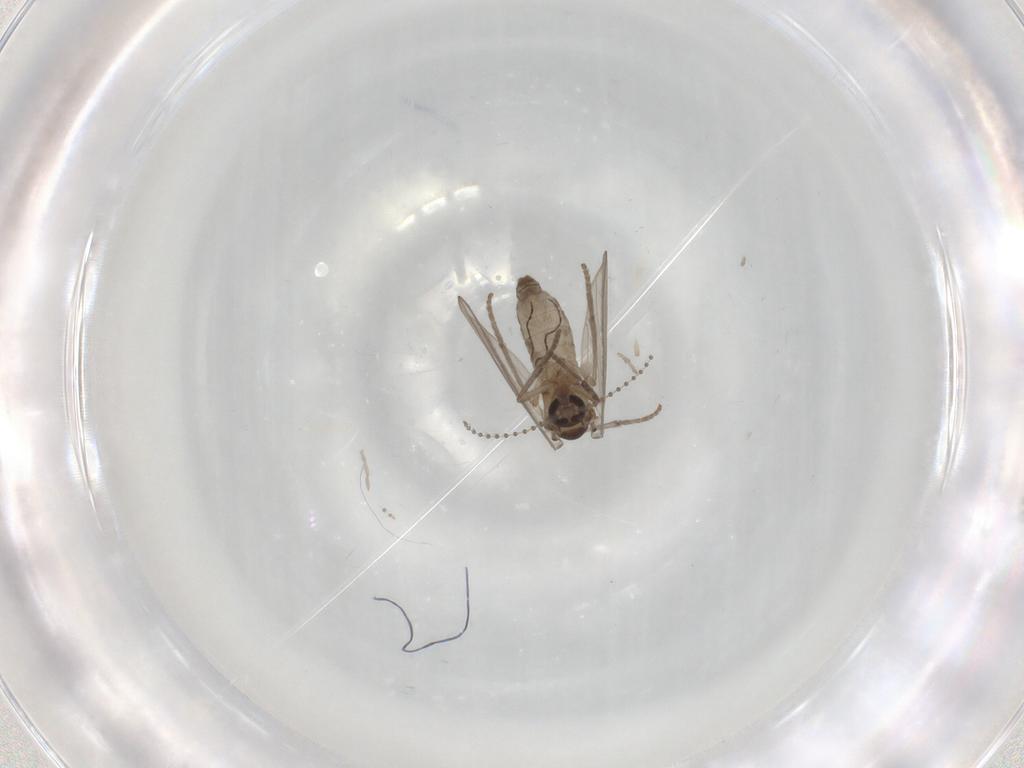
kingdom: Animalia
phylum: Arthropoda
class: Insecta
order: Diptera
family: Psychodidae
